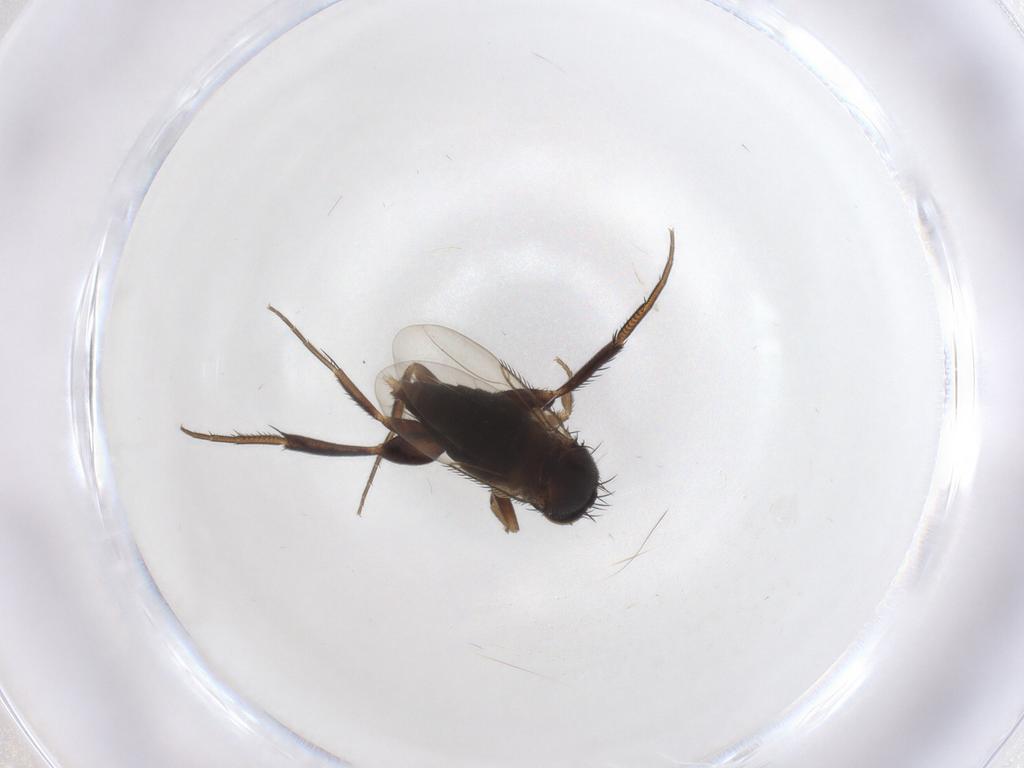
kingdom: Animalia
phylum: Arthropoda
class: Insecta
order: Diptera
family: Phoridae
